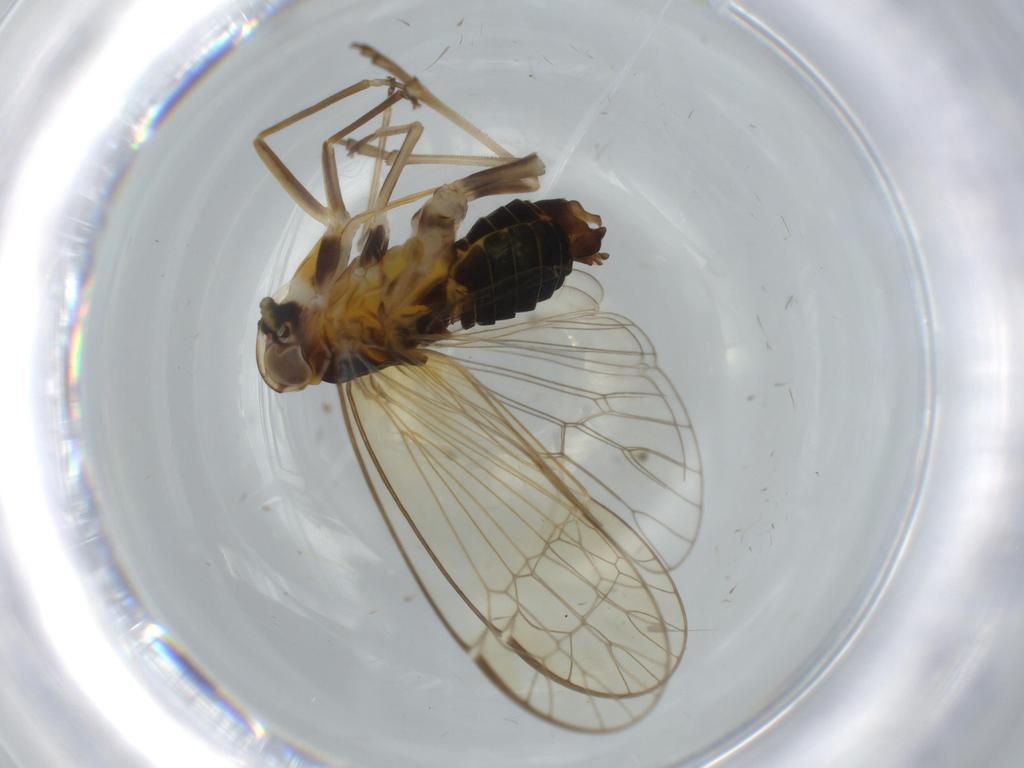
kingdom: Animalia
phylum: Arthropoda
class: Insecta
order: Hemiptera
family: Kinnaridae
